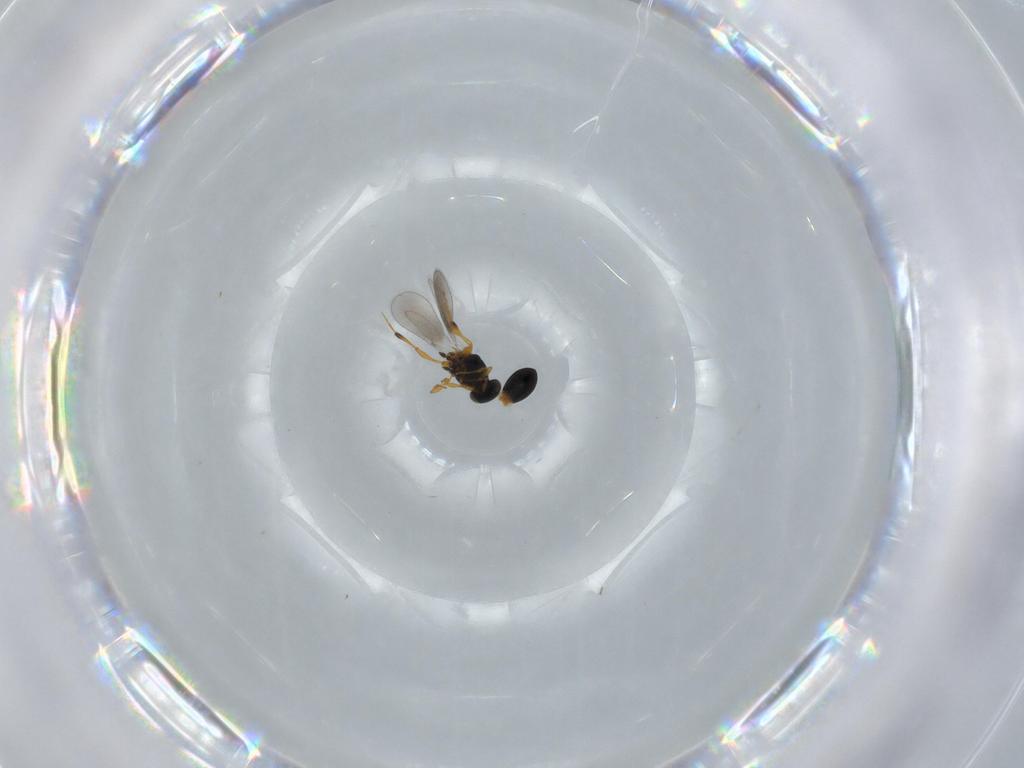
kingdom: Animalia
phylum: Arthropoda
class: Insecta
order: Hymenoptera
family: Platygastridae
